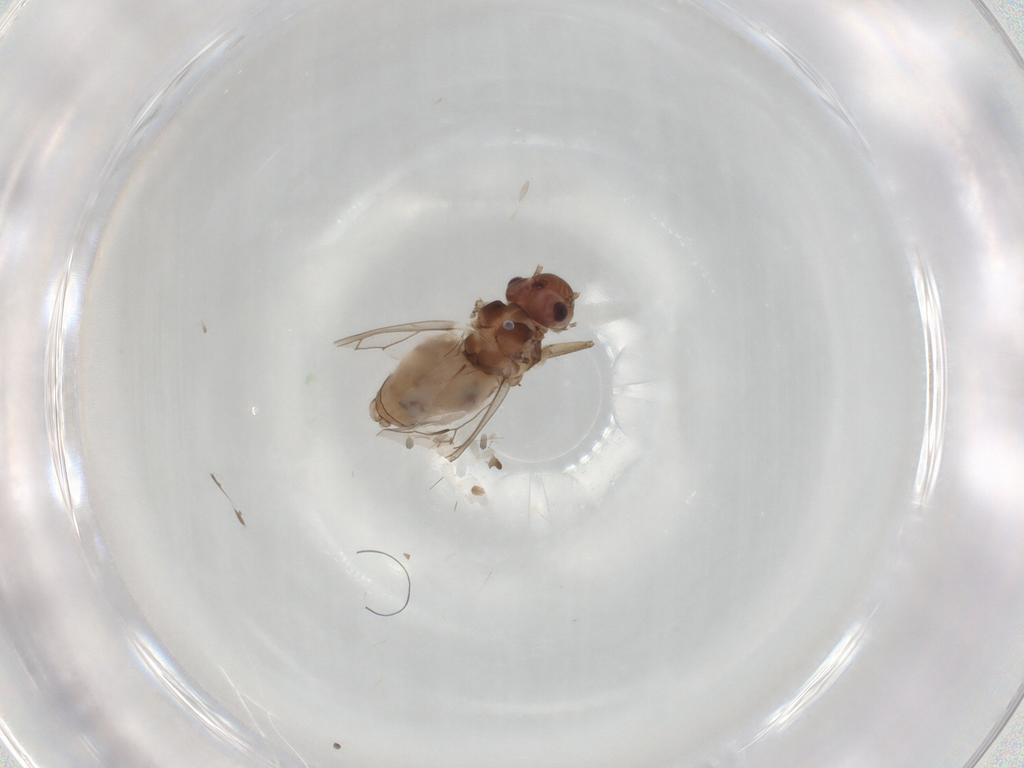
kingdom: Animalia
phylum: Arthropoda
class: Insecta
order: Psocodea
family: Peripsocidae
